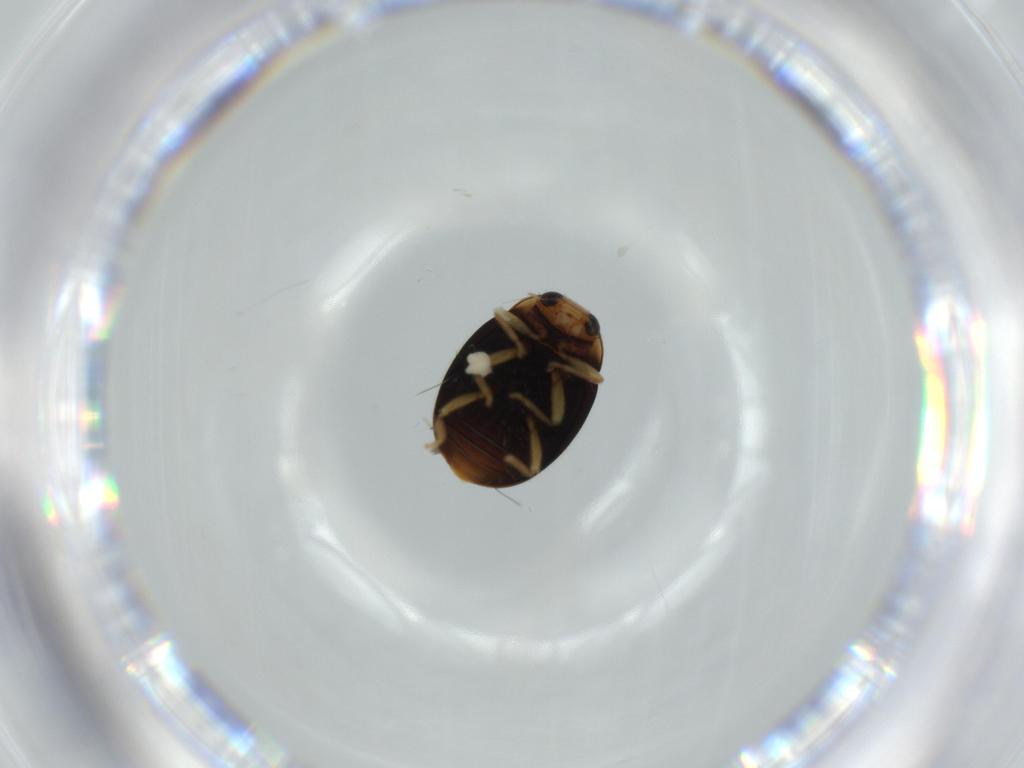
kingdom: Animalia
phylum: Arthropoda
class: Insecta
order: Coleoptera
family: Coccinellidae
